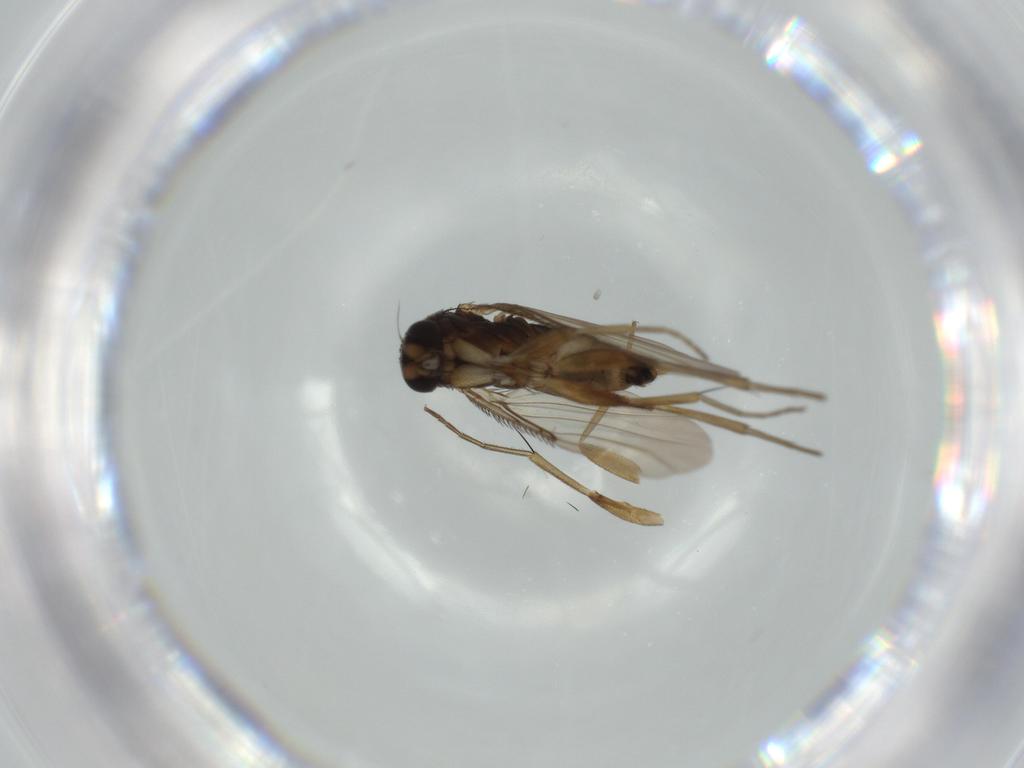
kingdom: Animalia
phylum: Arthropoda
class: Insecta
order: Diptera
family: Phoridae
